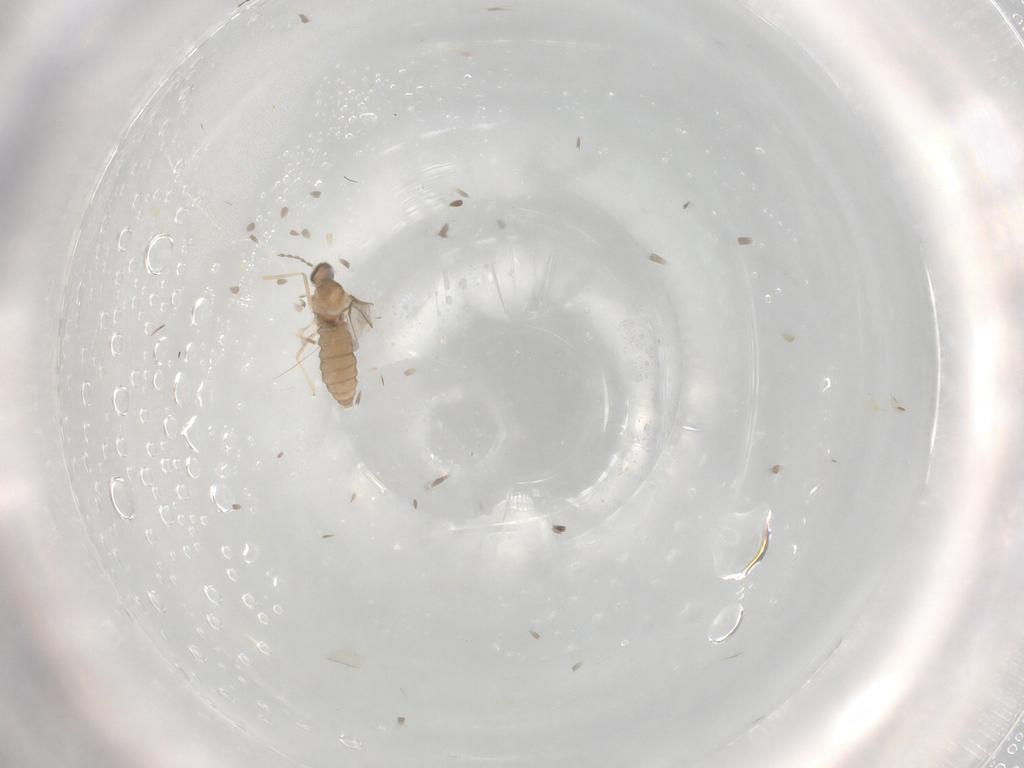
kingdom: Animalia
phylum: Arthropoda
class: Insecta
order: Diptera
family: Cecidomyiidae
